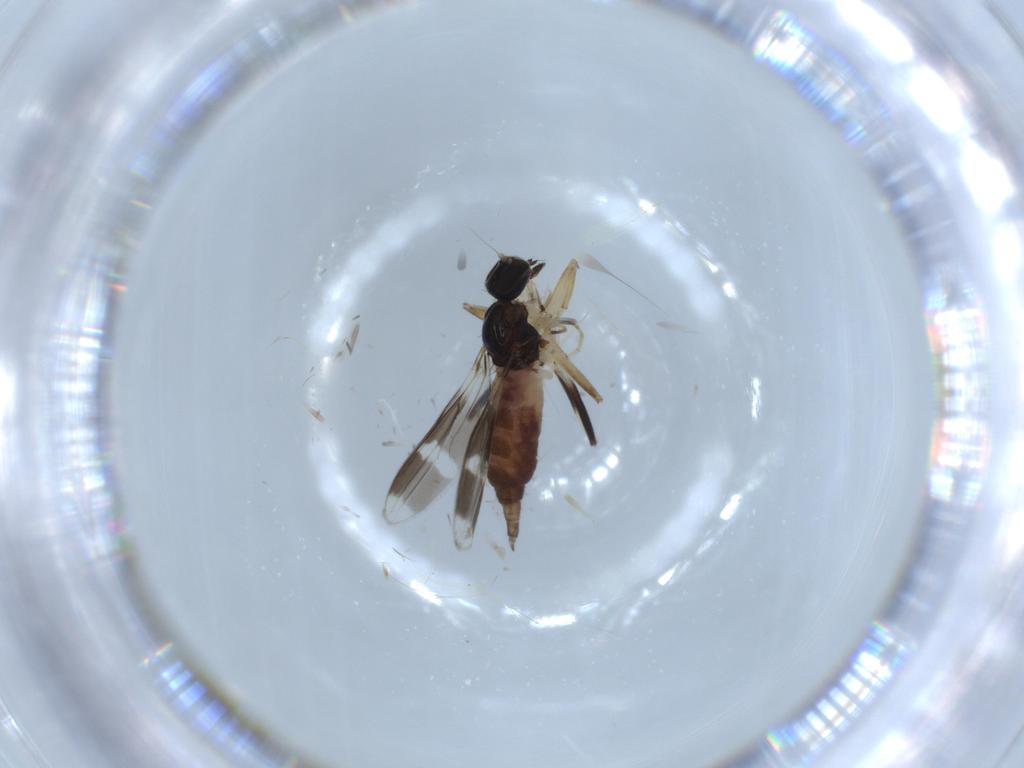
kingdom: Animalia
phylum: Arthropoda
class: Insecta
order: Diptera
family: Hybotidae
